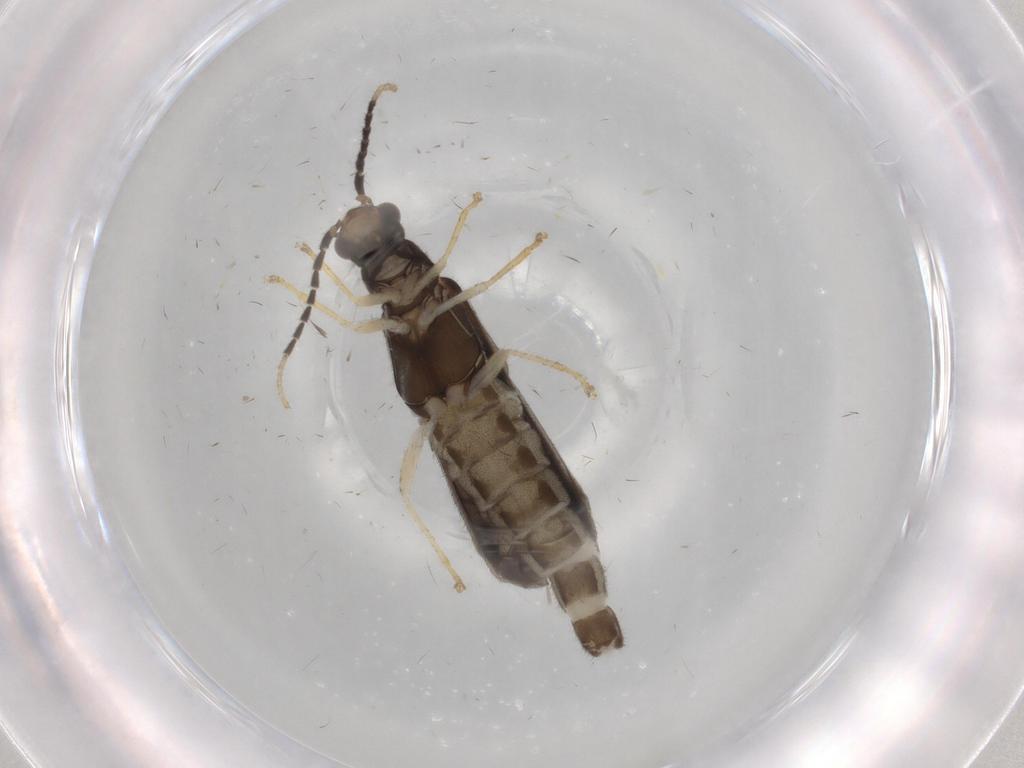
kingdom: Animalia
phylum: Arthropoda
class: Insecta
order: Coleoptera
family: Cantharidae
